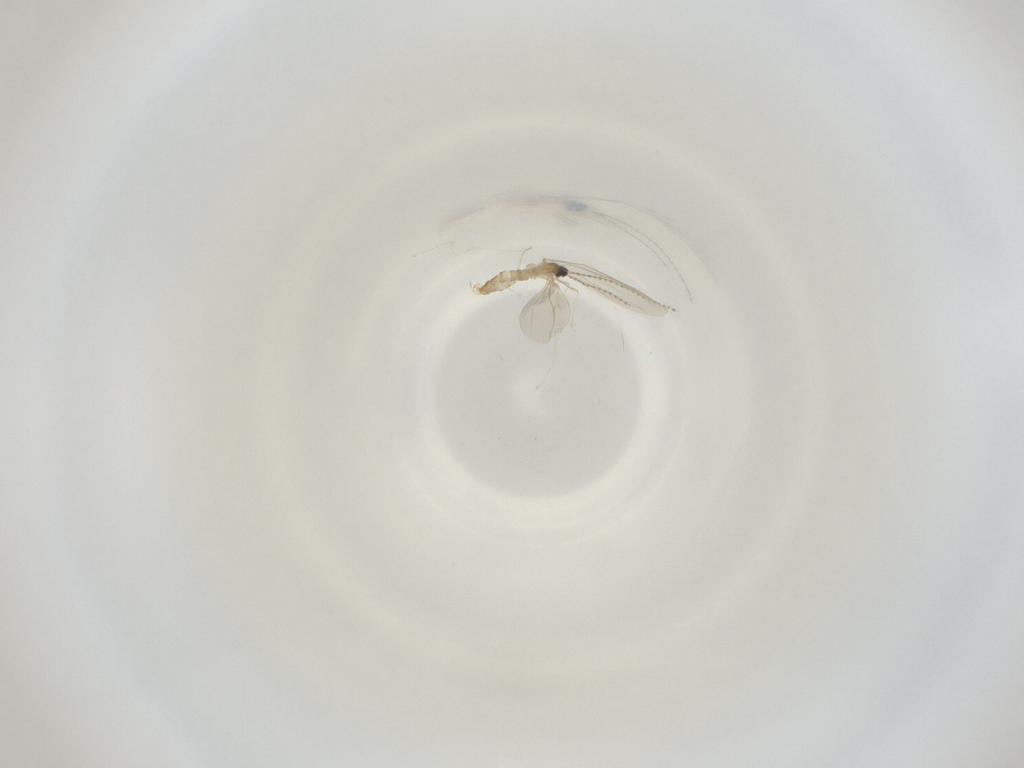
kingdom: Animalia
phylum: Arthropoda
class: Insecta
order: Diptera
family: Cecidomyiidae
